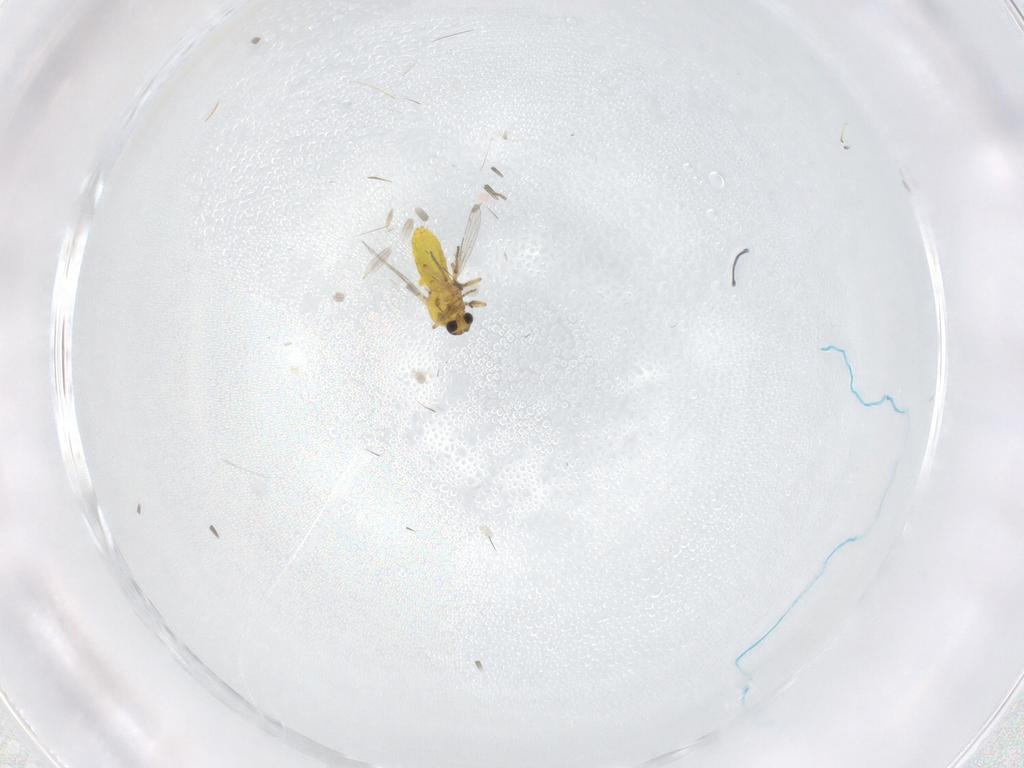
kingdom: Animalia
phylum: Arthropoda
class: Insecta
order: Diptera
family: Ceratopogonidae
